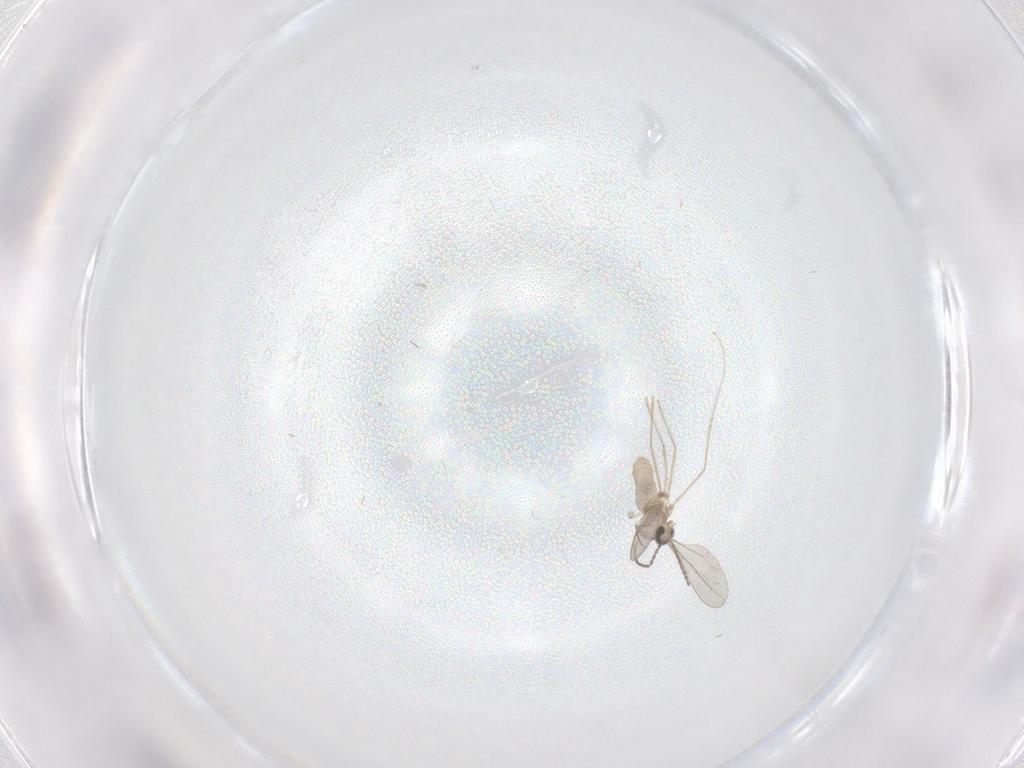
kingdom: Animalia
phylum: Arthropoda
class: Insecta
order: Diptera
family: Cecidomyiidae
